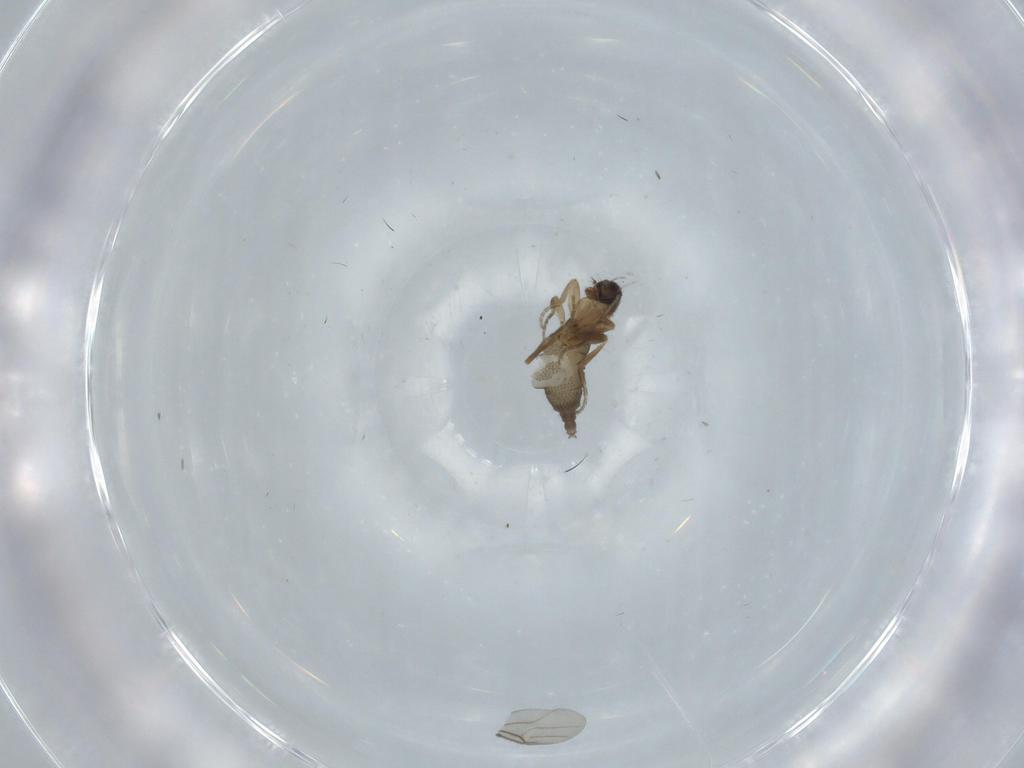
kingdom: Animalia
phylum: Arthropoda
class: Insecta
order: Diptera
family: Phoridae
